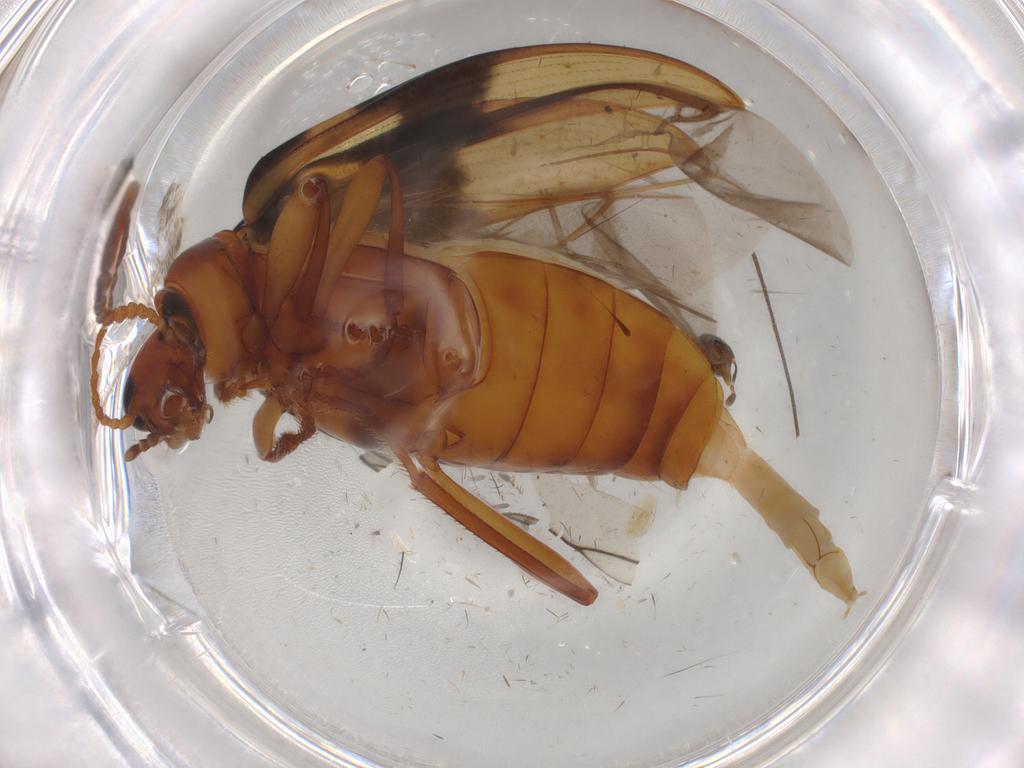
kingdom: Animalia
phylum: Arthropoda
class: Insecta
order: Coleoptera
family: Tenebrionidae
